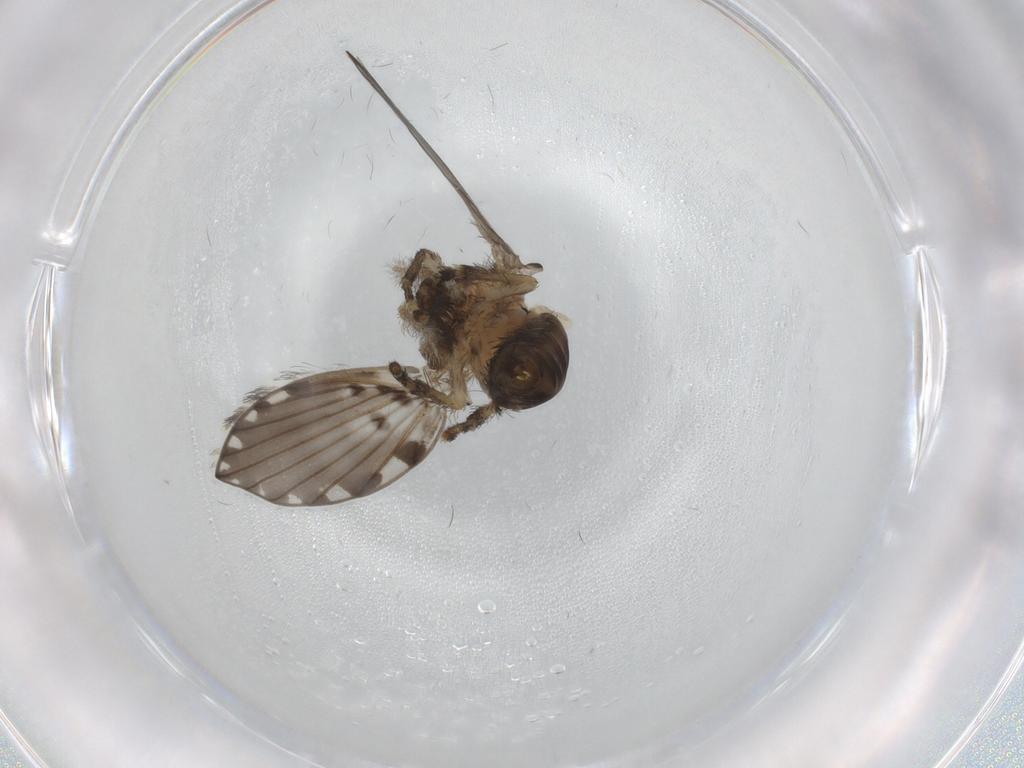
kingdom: Animalia
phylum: Arthropoda
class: Insecta
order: Diptera
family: Psychodidae
